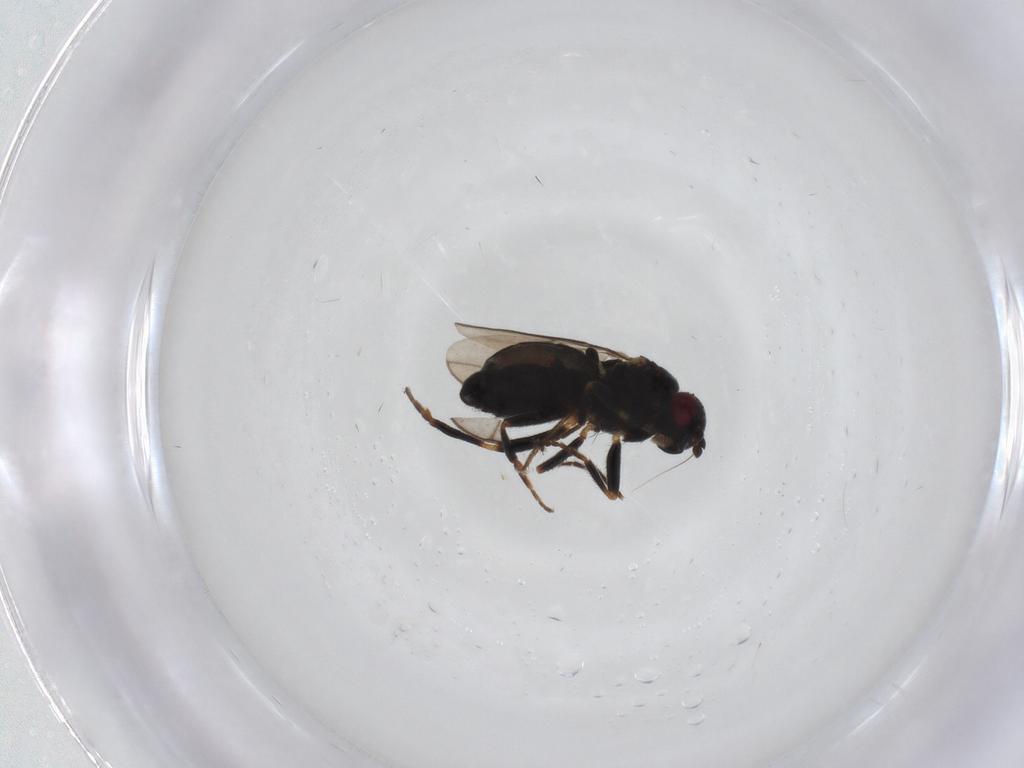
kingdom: Animalia
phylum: Arthropoda
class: Insecta
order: Diptera
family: Sphaeroceridae
